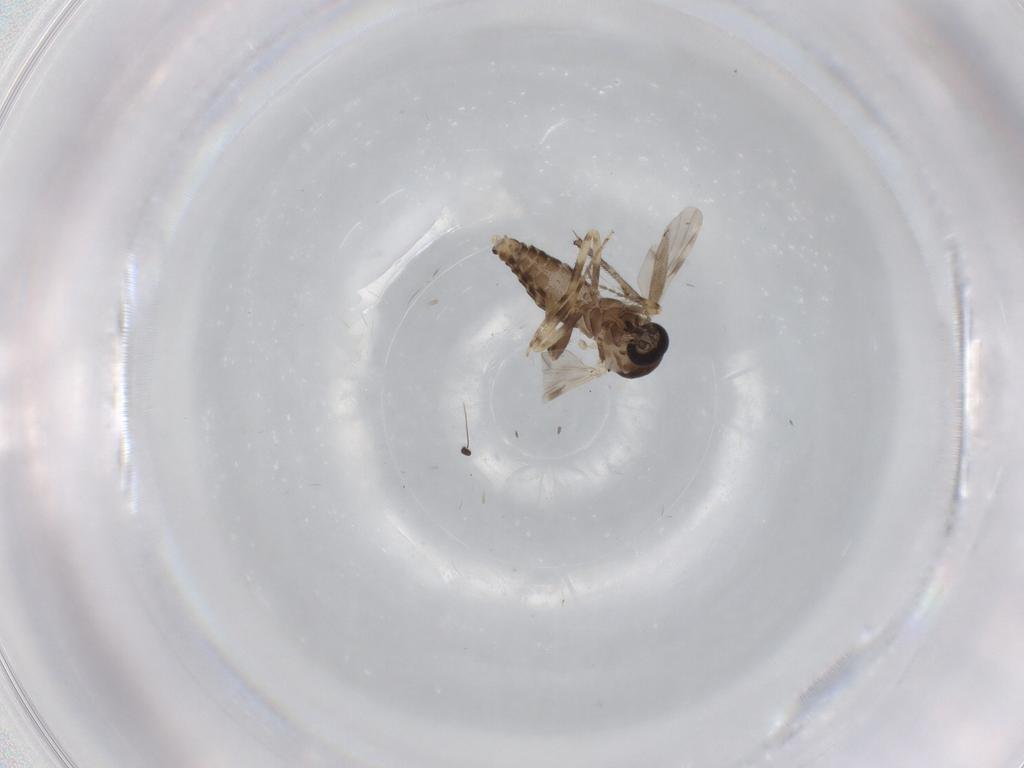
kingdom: Animalia
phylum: Arthropoda
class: Insecta
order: Diptera
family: Ceratopogonidae
